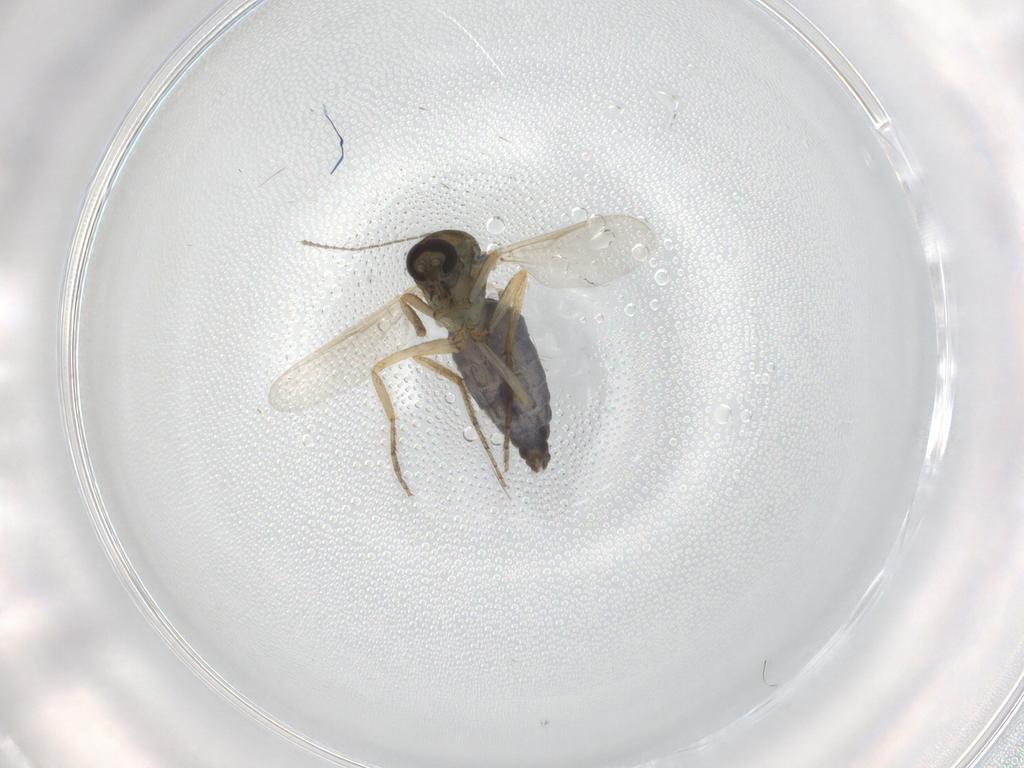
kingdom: Animalia
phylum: Arthropoda
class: Insecta
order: Diptera
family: Ceratopogonidae
